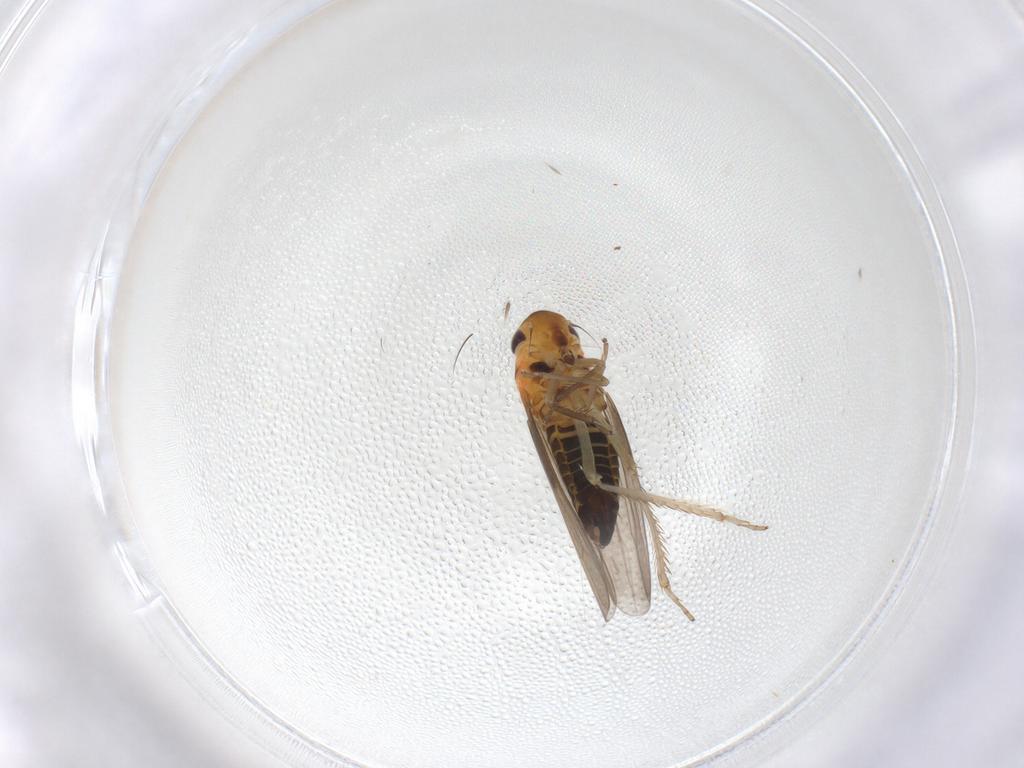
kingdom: Animalia
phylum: Arthropoda
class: Insecta
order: Hemiptera
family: Cicadellidae
